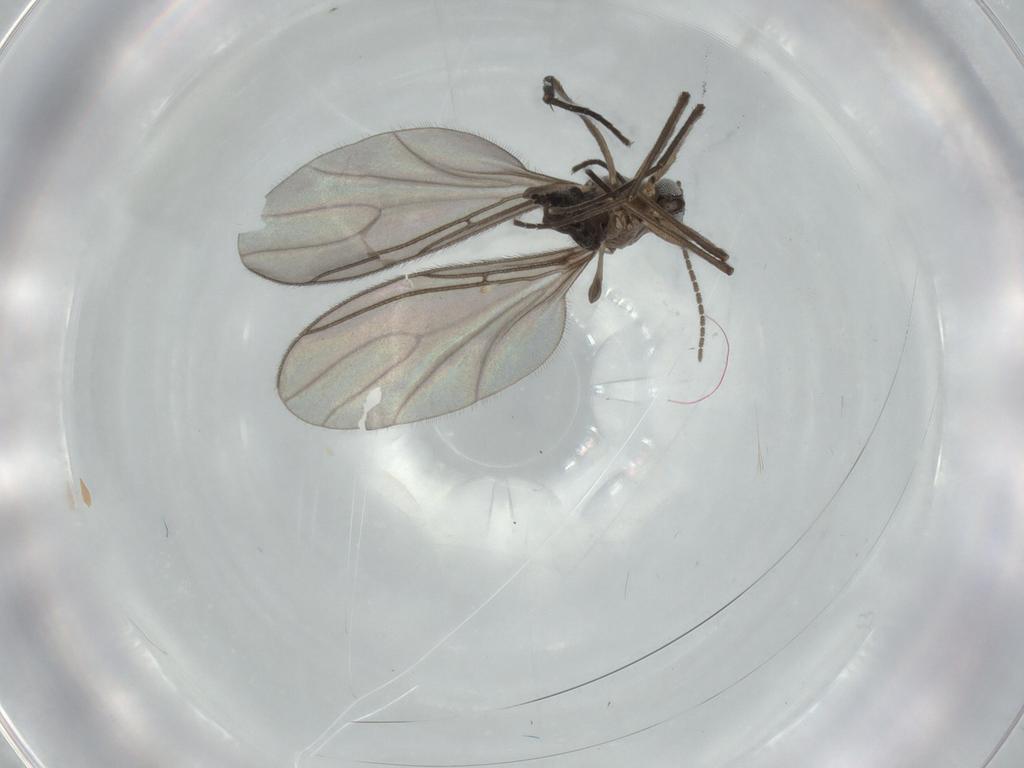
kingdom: Animalia
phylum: Arthropoda
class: Insecta
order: Diptera
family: Sciaridae
